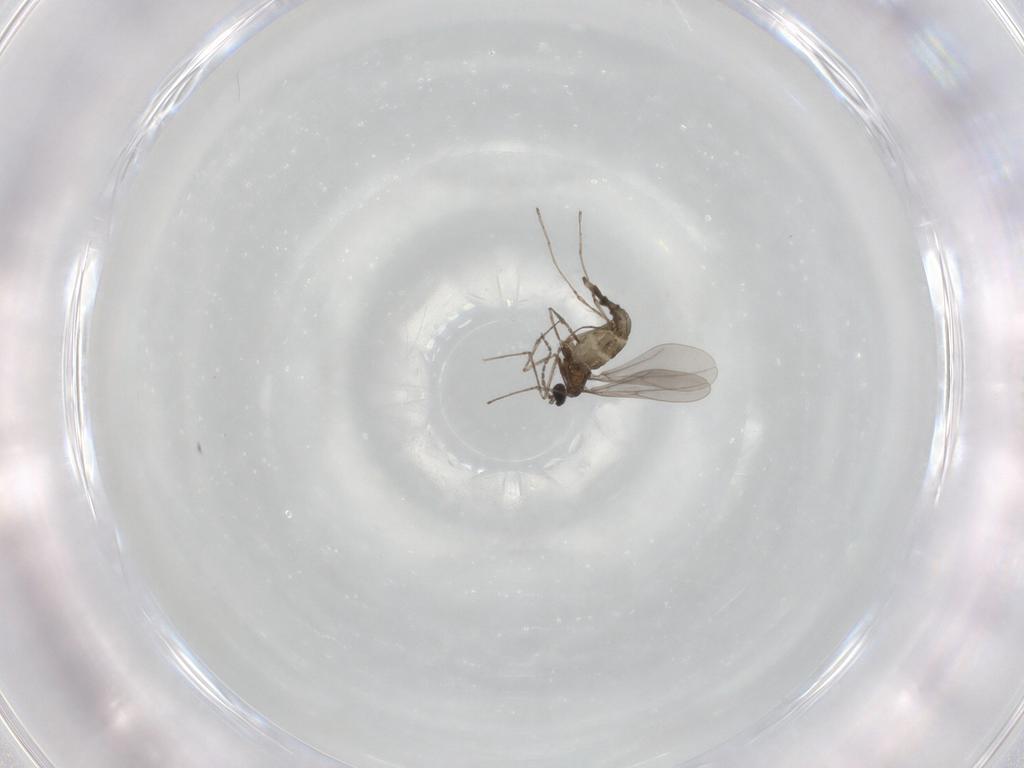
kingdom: Animalia
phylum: Arthropoda
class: Insecta
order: Diptera
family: Cecidomyiidae
